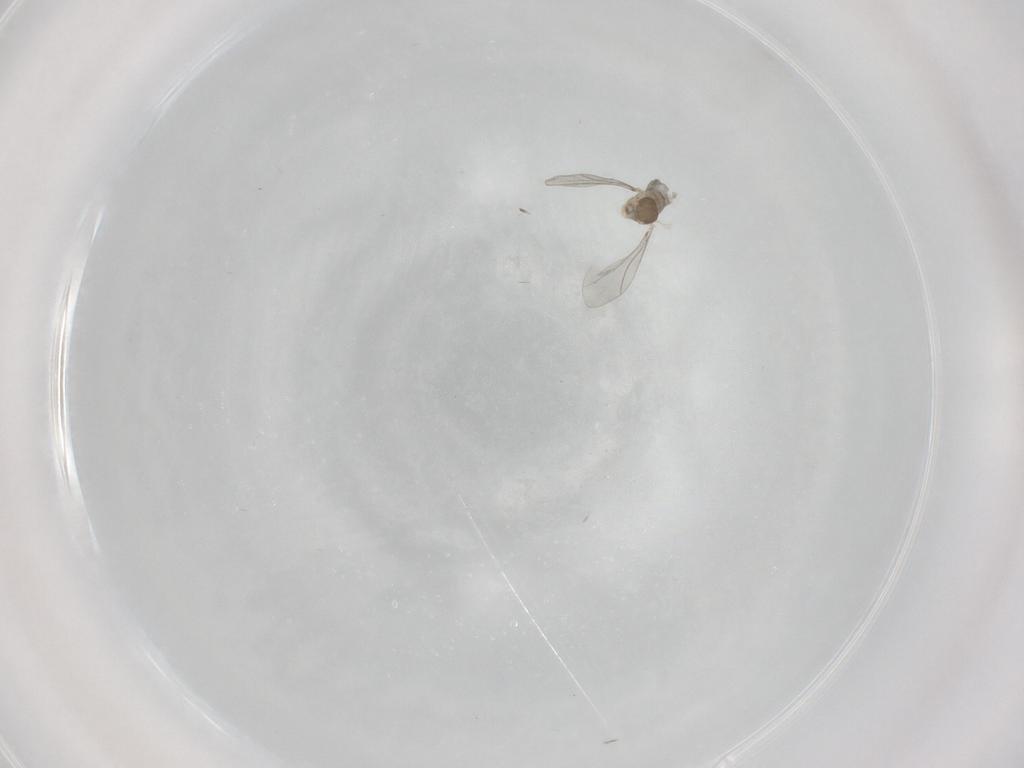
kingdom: Animalia
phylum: Arthropoda
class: Insecta
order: Diptera
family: Cecidomyiidae
